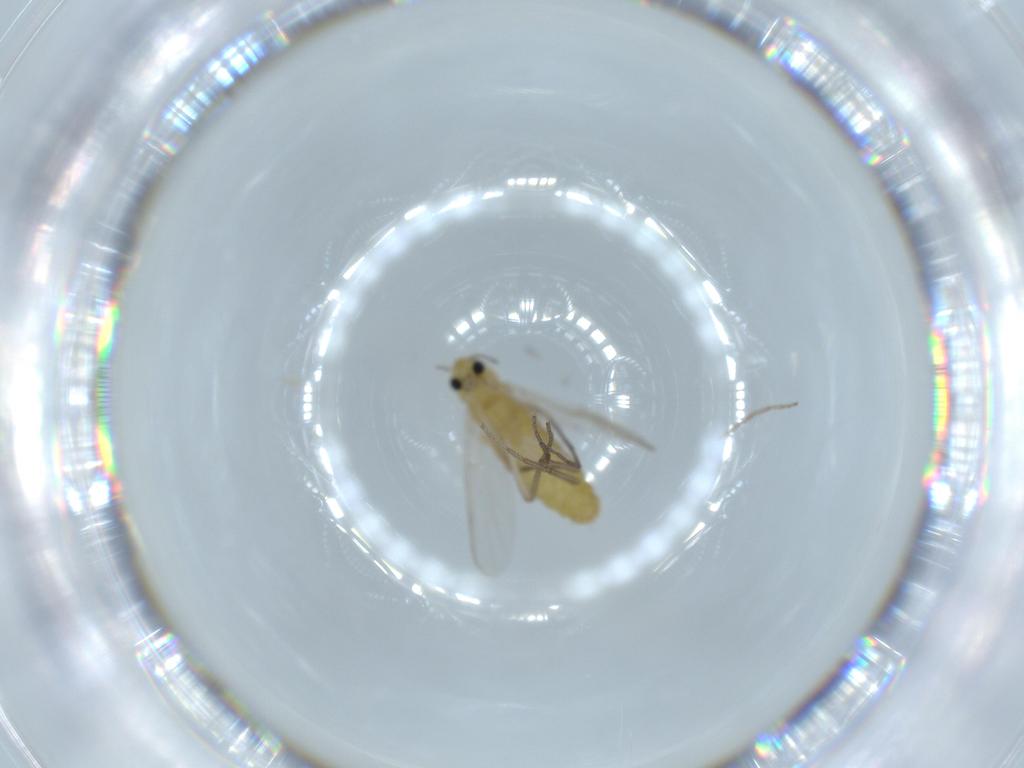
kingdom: Animalia
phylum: Arthropoda
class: Insecta
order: Diptera
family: Chironomidae
